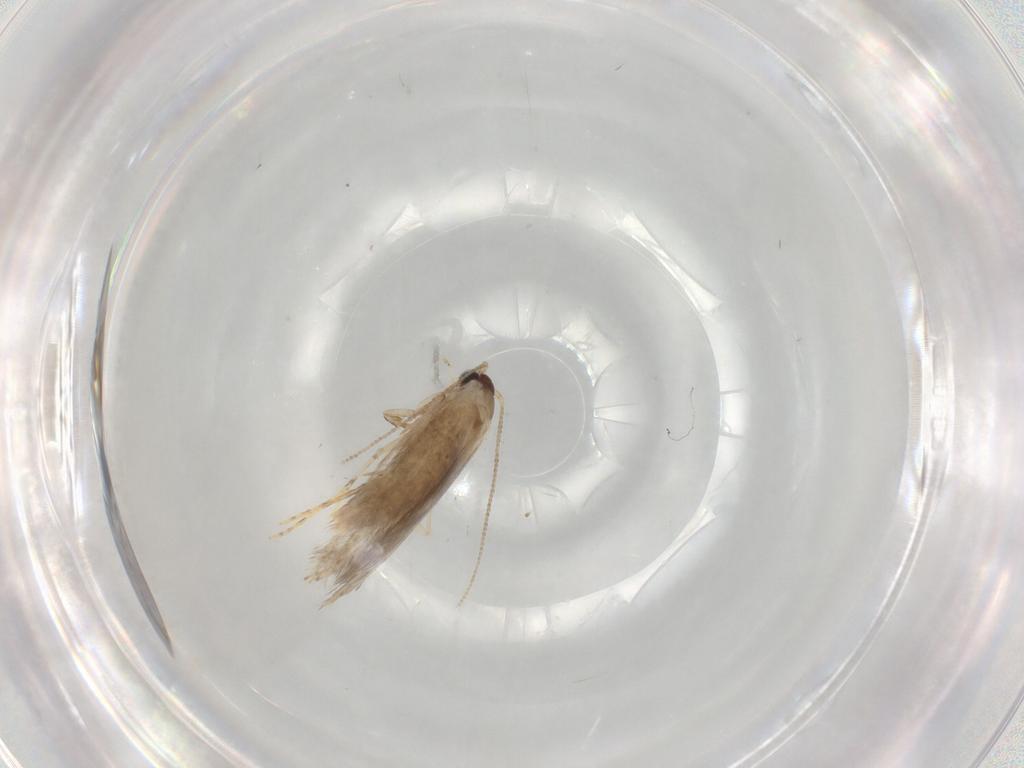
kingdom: Animalia
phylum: Arthropoda
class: Insecta
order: Lepidoptera
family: Tineidae
